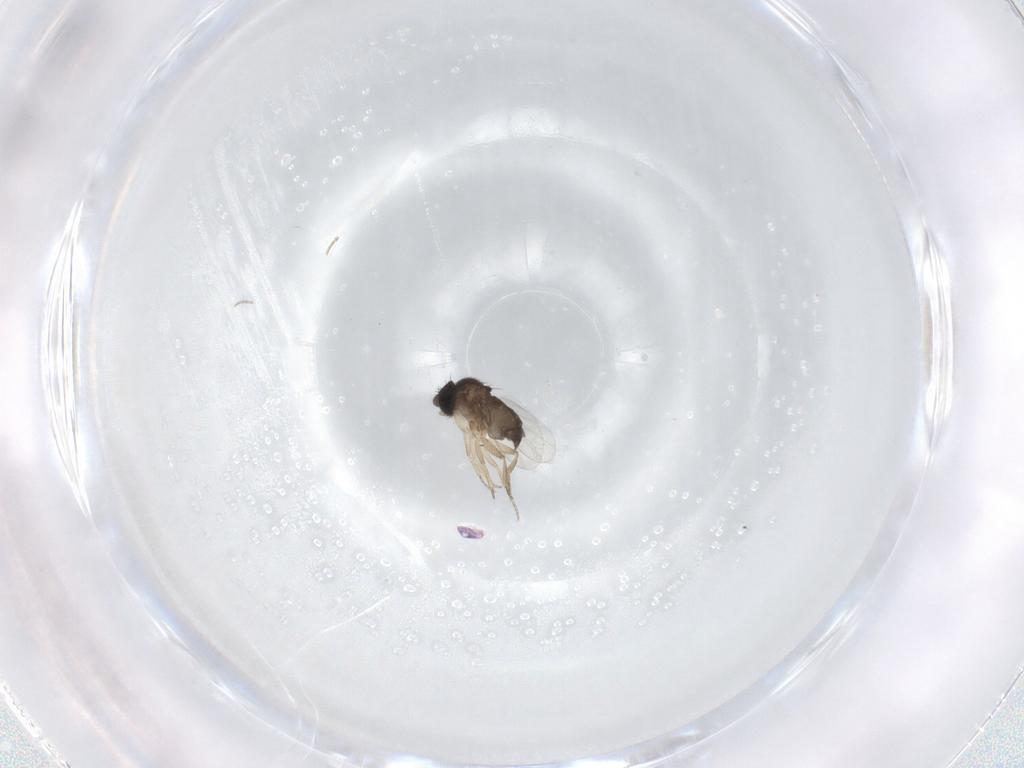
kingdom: Animalia
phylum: Arthropoda
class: Insecta
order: Diptera
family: Phoridae
